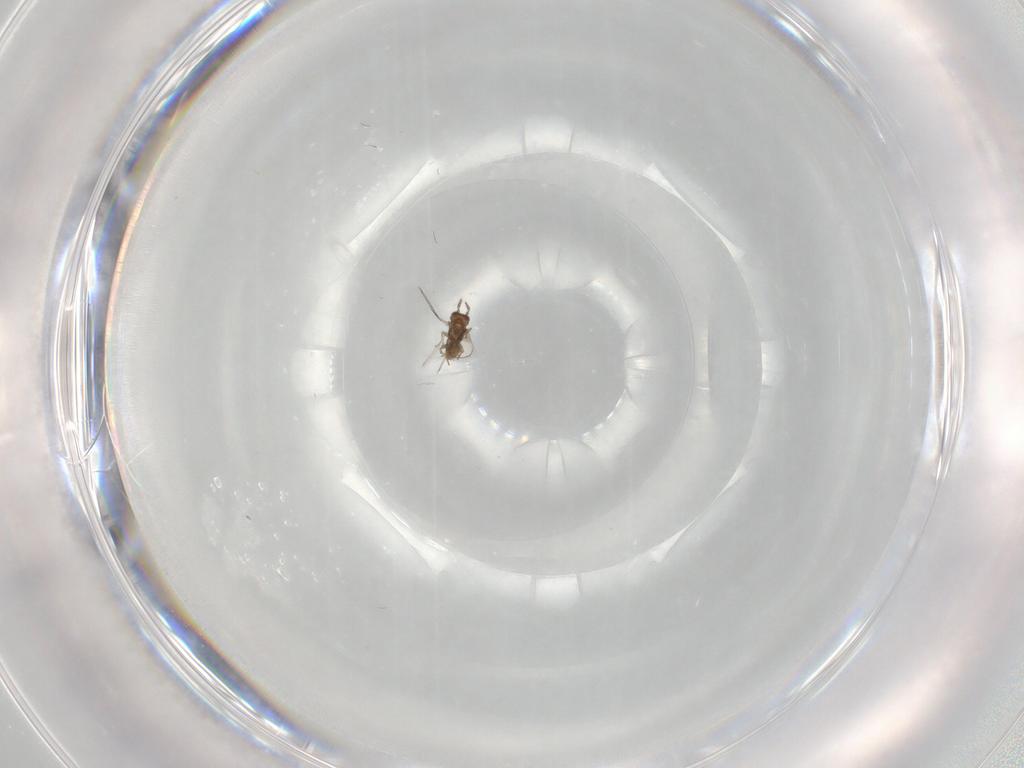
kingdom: Animalia
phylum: Arthropoda
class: Insecta
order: Hymenoptera
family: Trichogrammatidae
